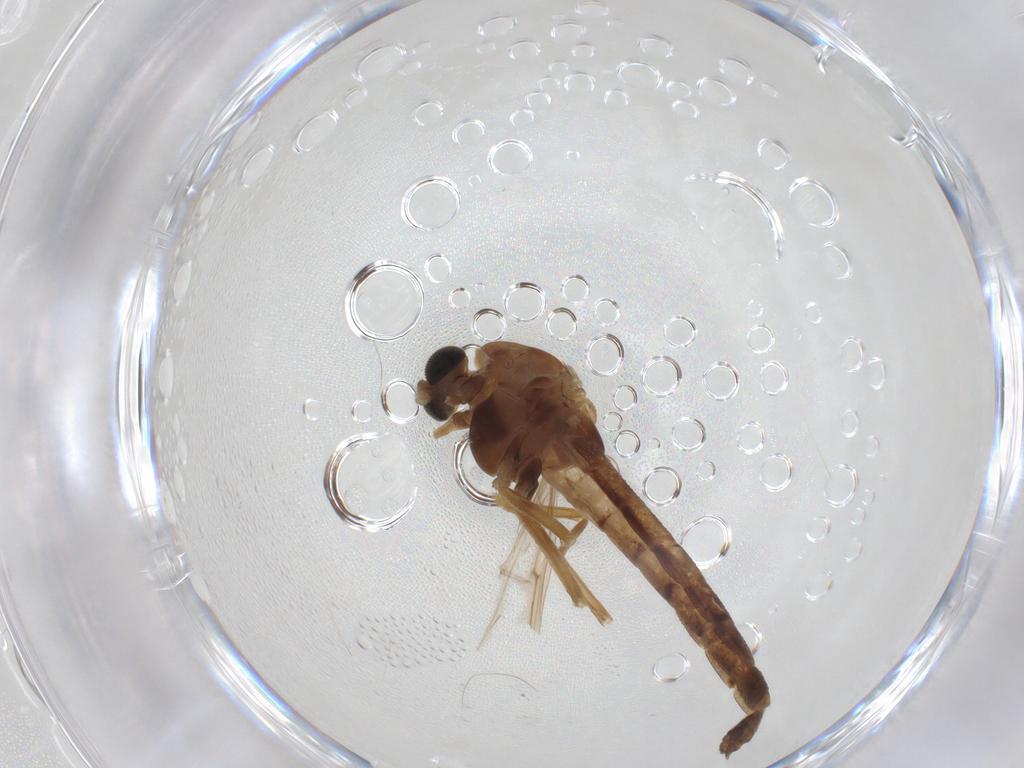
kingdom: Animalia
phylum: Arthropoda
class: Insecta
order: Diptera
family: Chironomidae
